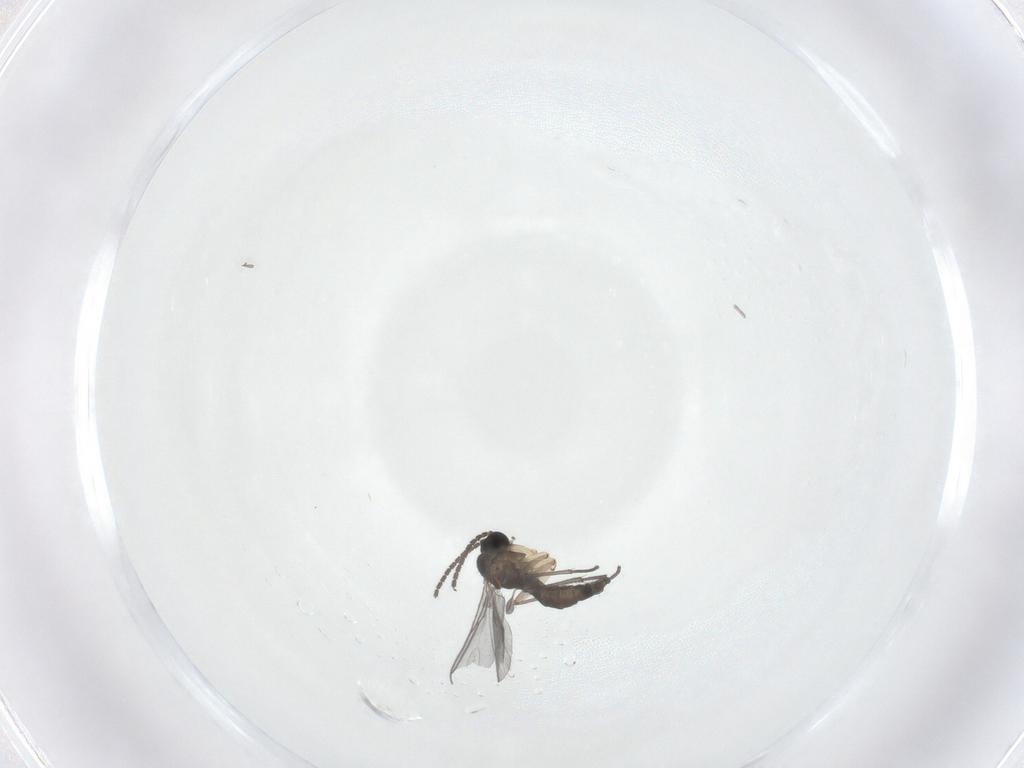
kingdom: Animalia
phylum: Arthropoda
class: Insecta
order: Diptera
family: Sciaridae
